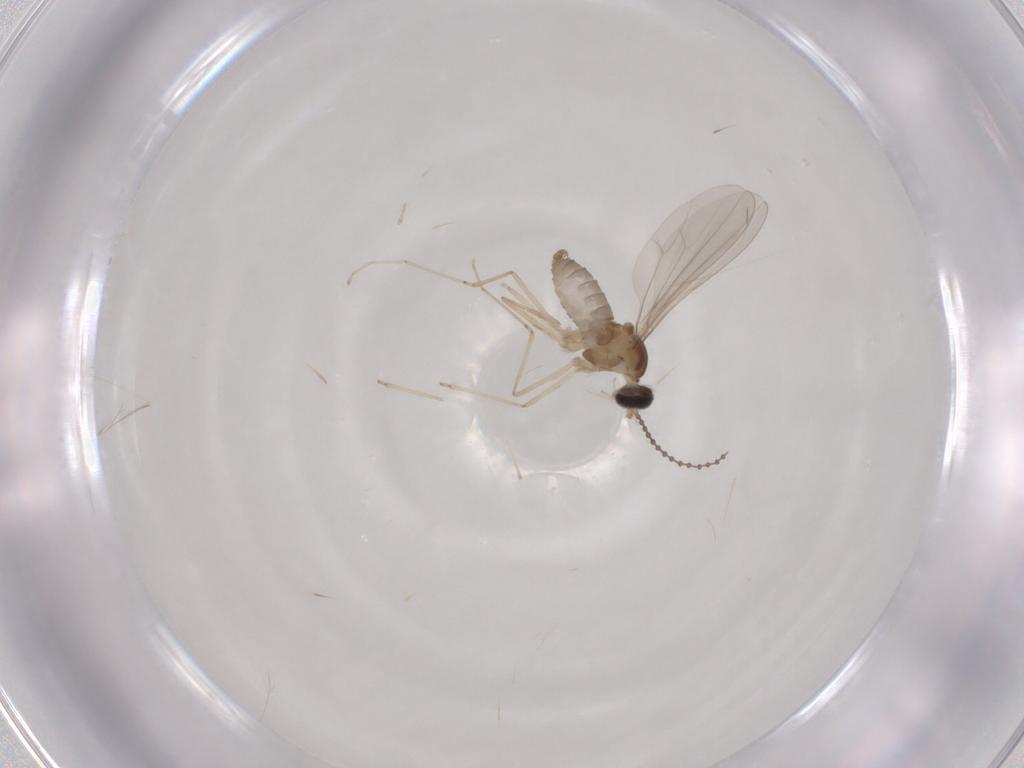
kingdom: Animalia
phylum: Arthropoda
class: Insecta
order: Diptera
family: Cecidomyiidae
